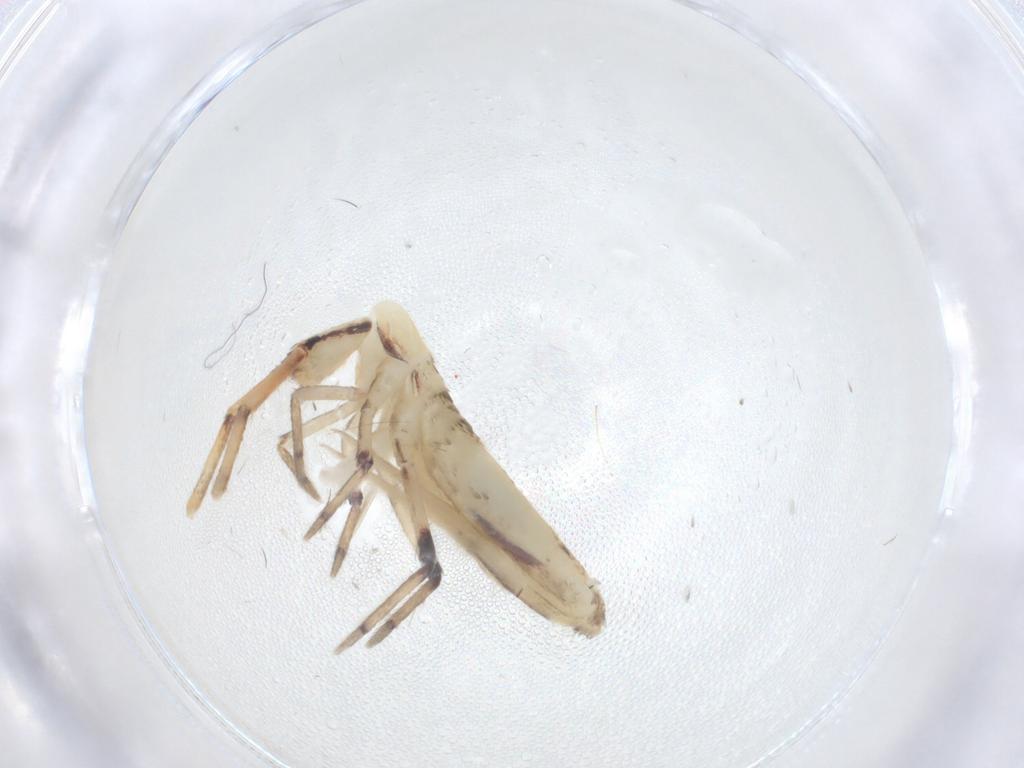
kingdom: Animalia
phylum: Arthropoda
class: Collembola
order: Entomobryomorpha
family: Entomobryidae
